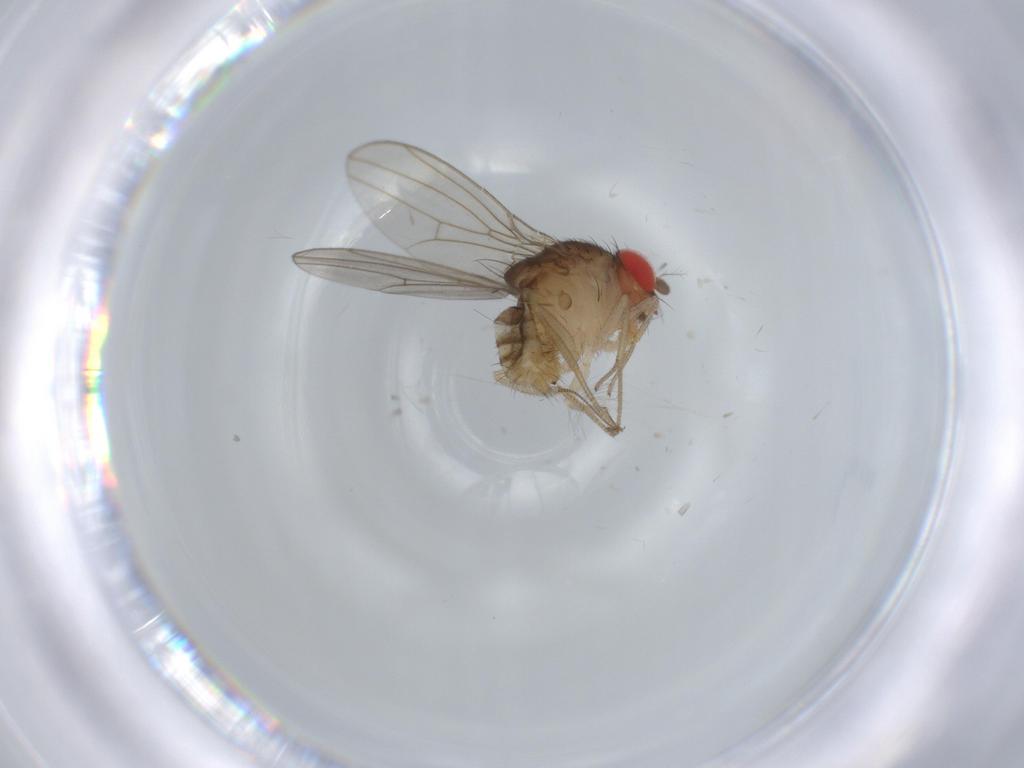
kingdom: Animalia
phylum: Arthropoda
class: Insecta
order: Diptera
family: Drosophilidae
